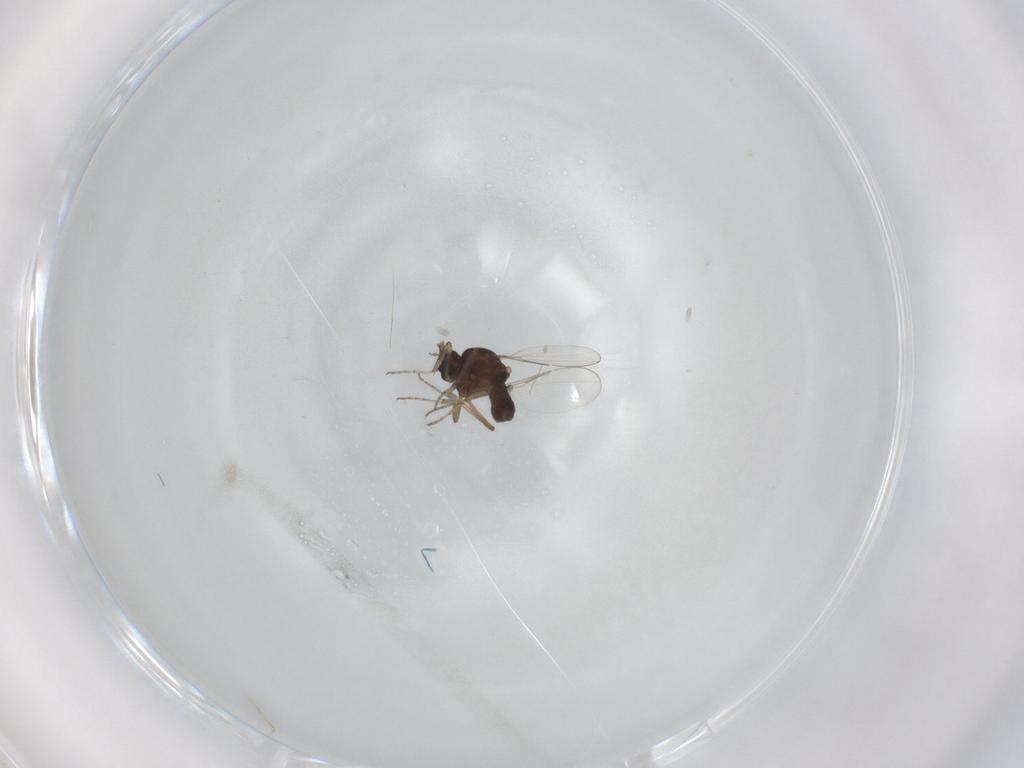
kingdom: Animalia
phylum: Arthropoda
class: Insecta
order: Diptera
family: Ceratopogonidae
